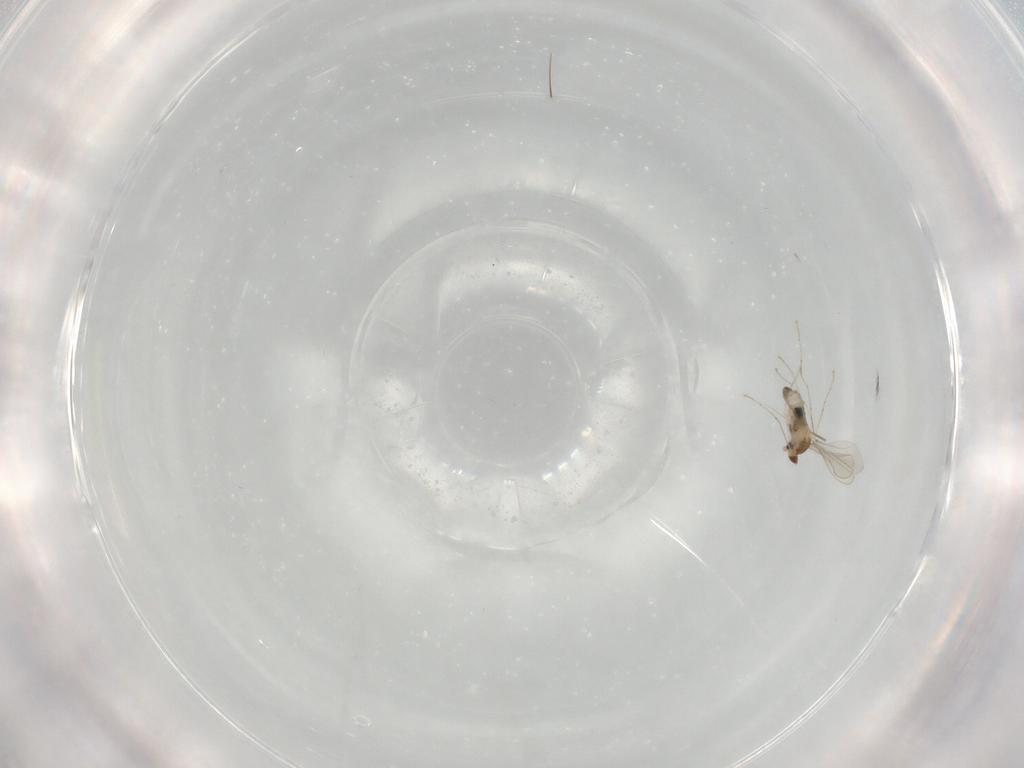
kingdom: Animalia
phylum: Arthropoda
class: Insecta
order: Diptera
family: Cecidomyiidae
